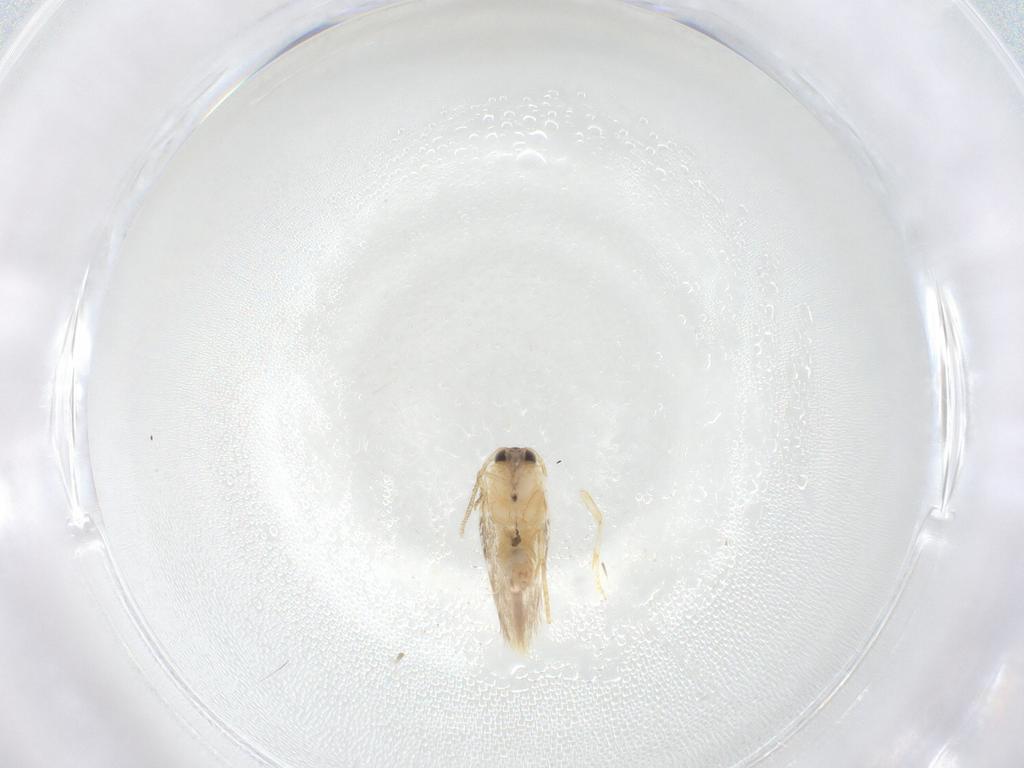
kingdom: Animalia
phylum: Arthropoda
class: Insecta
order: Lepidoptera
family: Nepticulidae
